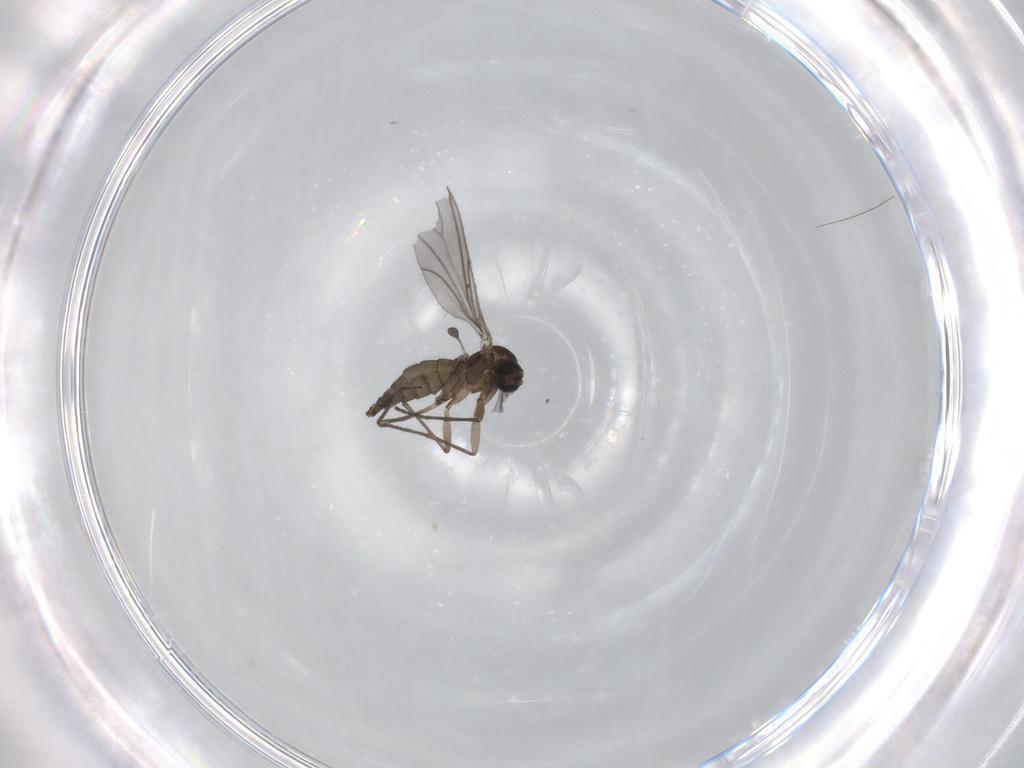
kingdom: Animalia
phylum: Arthropoda
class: Insecta
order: Diptera
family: Sciaridae
